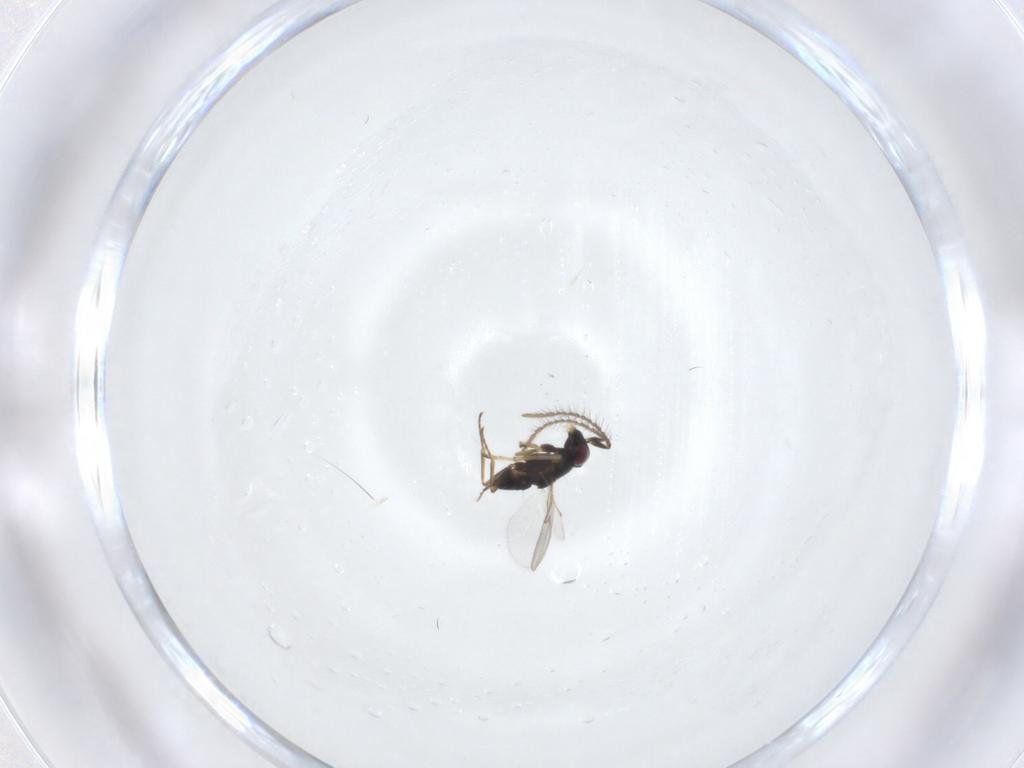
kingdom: Animalia
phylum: Arthropoda
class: Insecta
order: Hymenoptera
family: Encyrtidae
